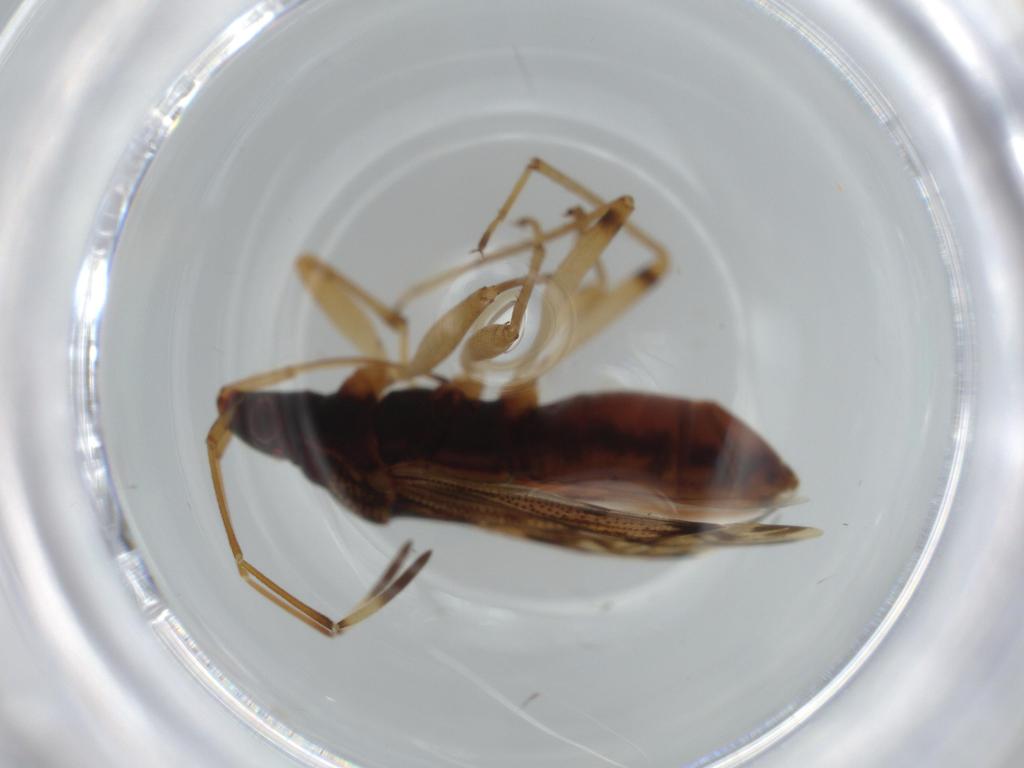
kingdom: Animalia
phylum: Arthropoda
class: Insecta
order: Hemiptera
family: Rhyparochromidae
